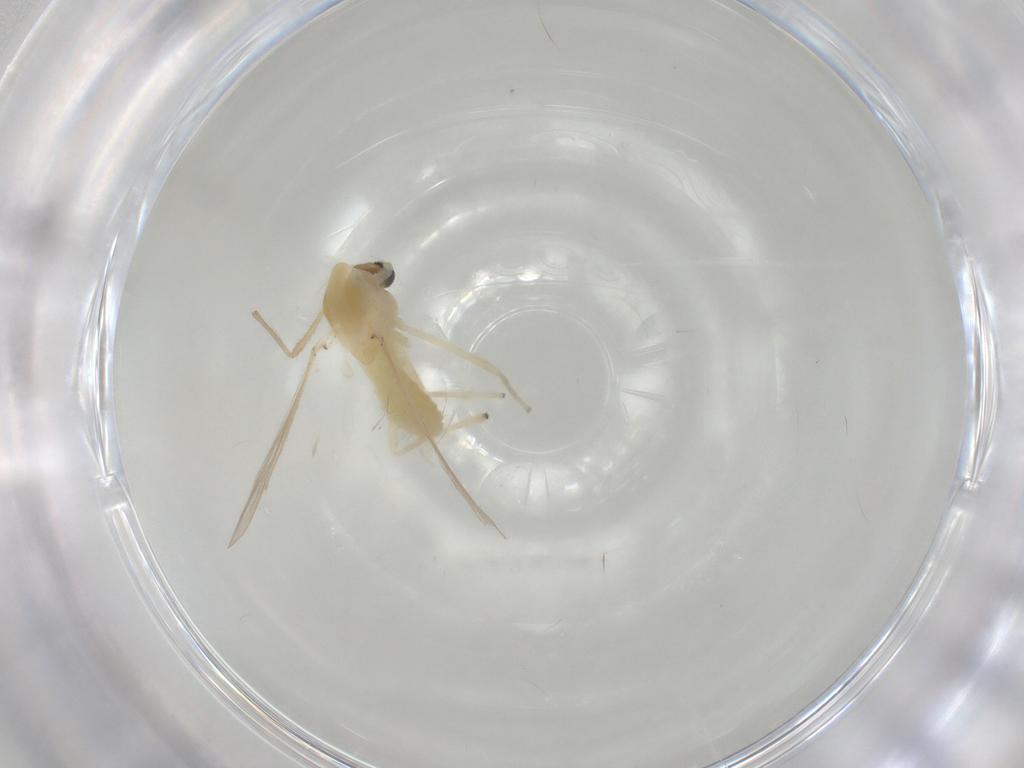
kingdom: Animalia
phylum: Arthropoda
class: Insecta
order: Diptera
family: Chironomidae
